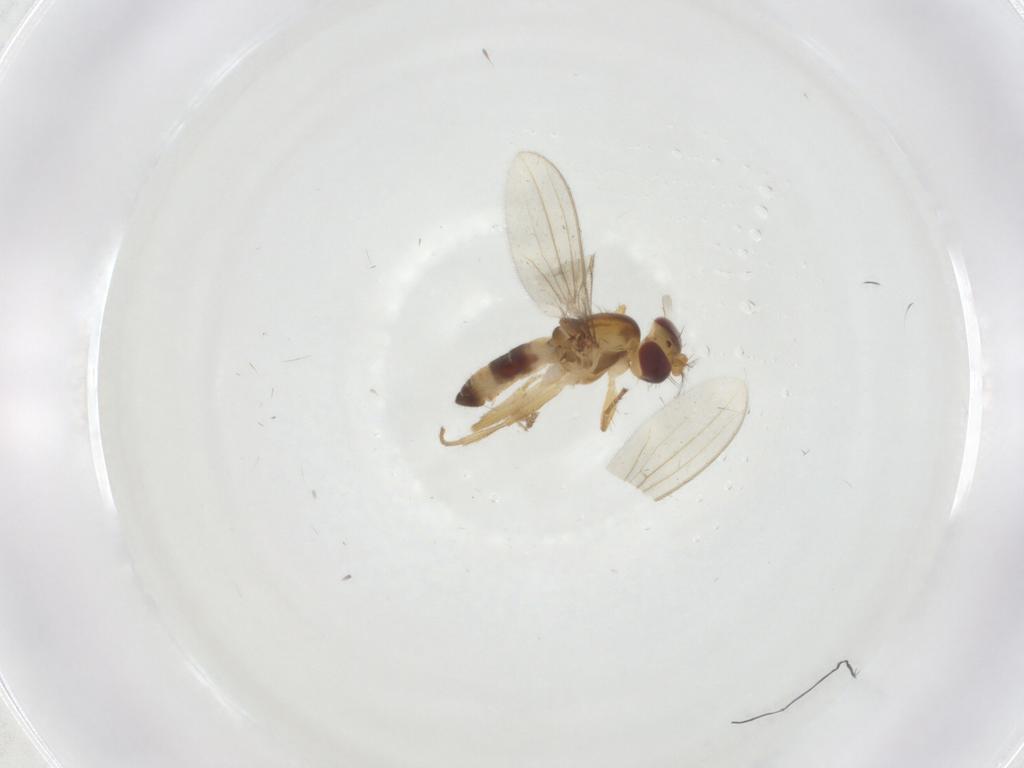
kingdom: Animalia
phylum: Arthropoda
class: Insecta
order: Diptera
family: Periscelididae
